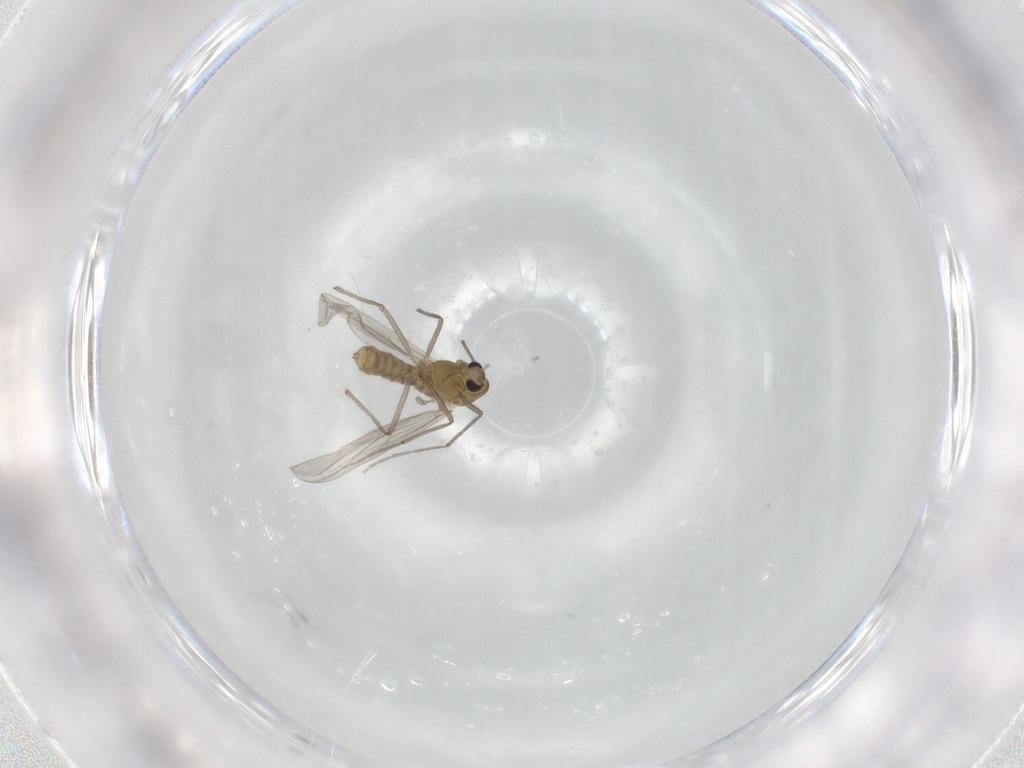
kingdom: Animalia
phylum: Arthropoda
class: Insecta
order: Diptera
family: Chironomidae
